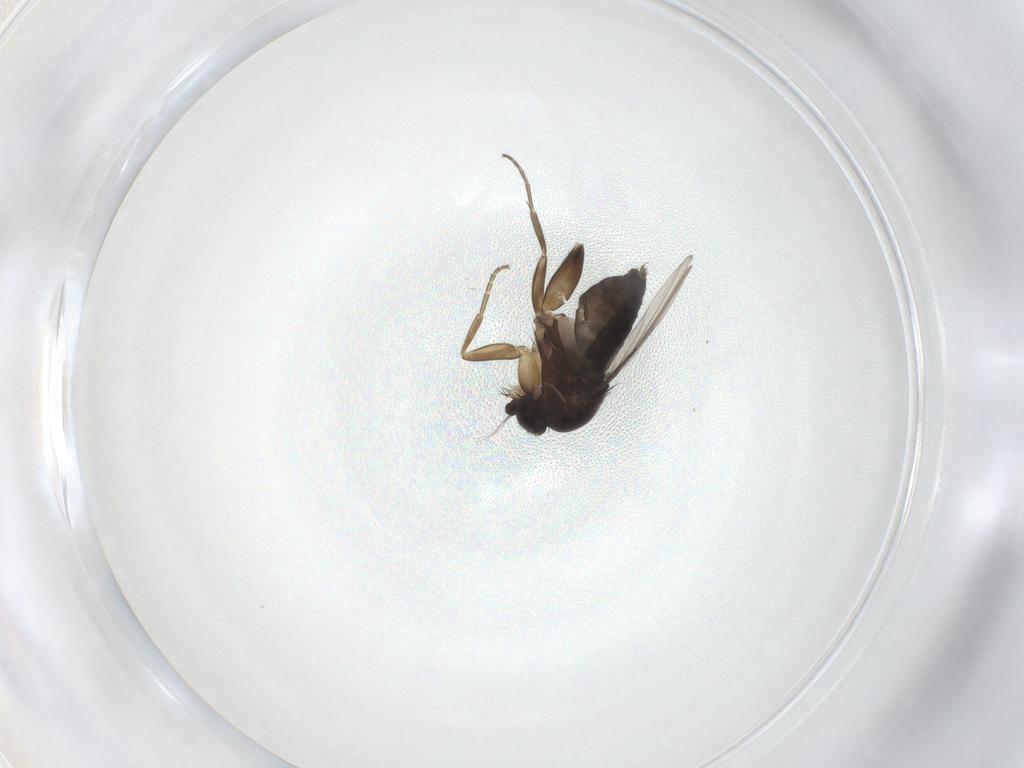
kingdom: Animalia
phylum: Arthropoda
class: Insecta
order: Diptera
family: Phoridae
